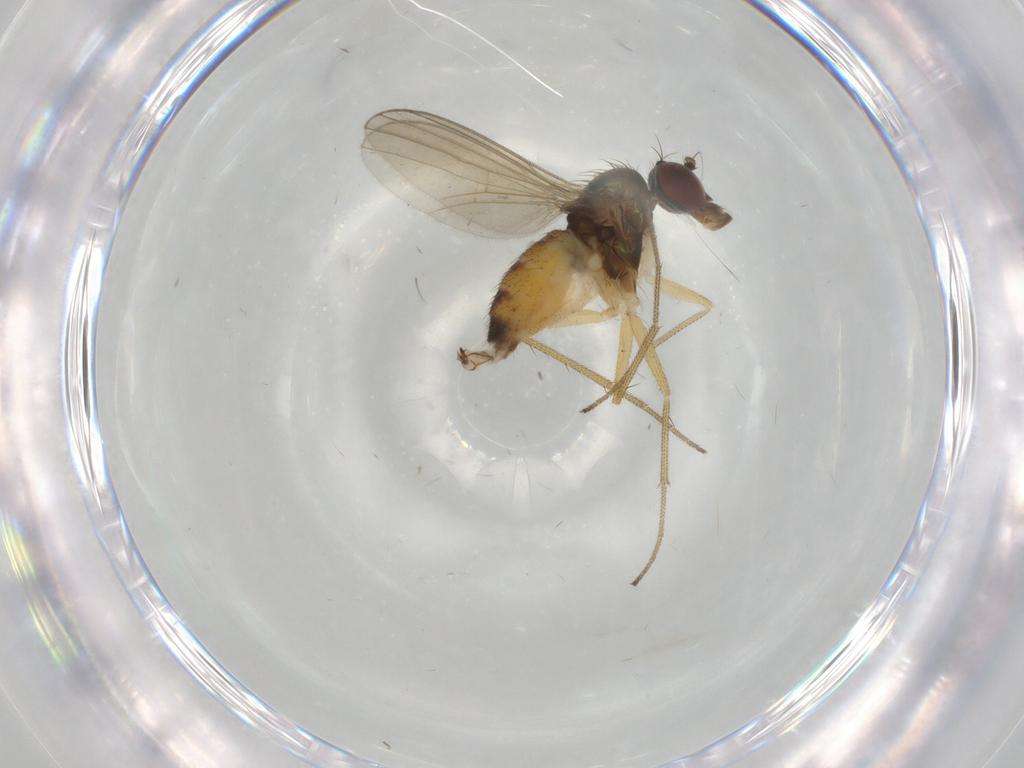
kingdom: Animalia
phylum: Arthropoda
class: Insecta
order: Diptera
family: Dolichopodidae
